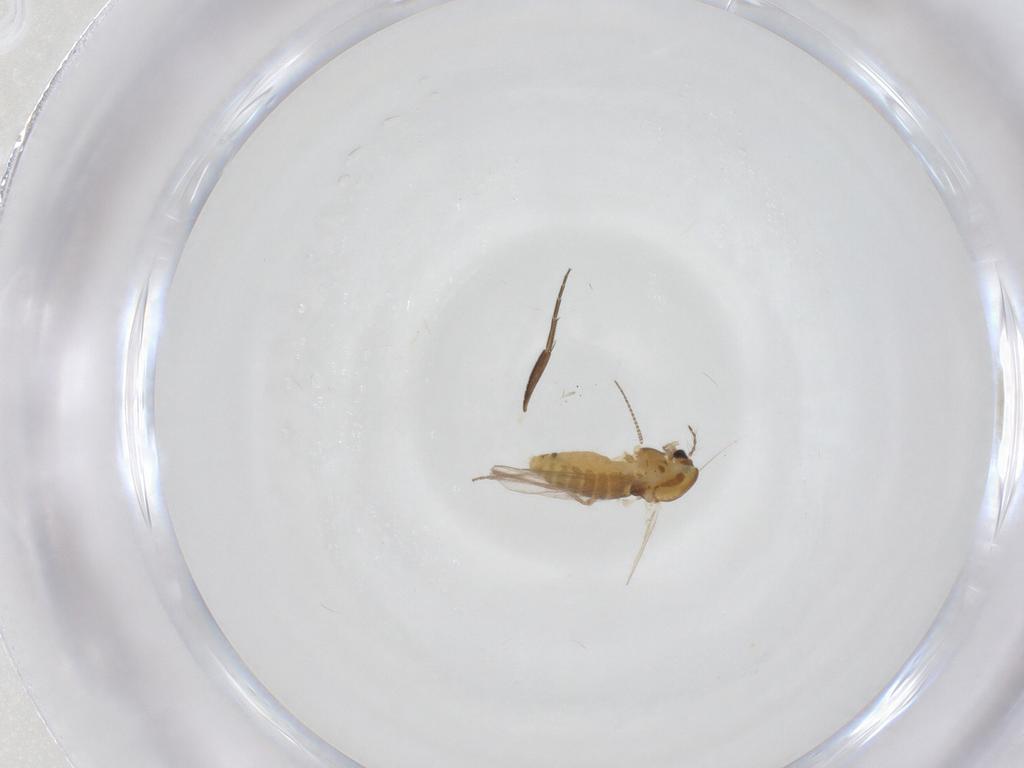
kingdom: Animalia
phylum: Arthropoda
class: Insecta
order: Diptera
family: Chironomidae
